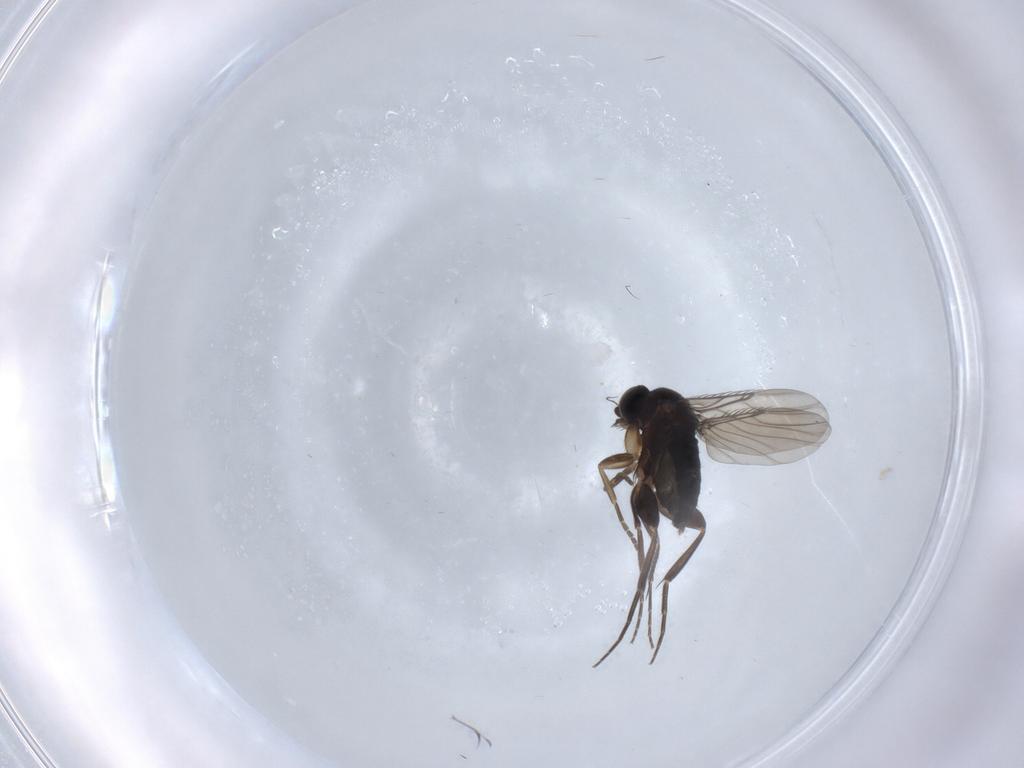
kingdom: Animalia
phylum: Arthropoda
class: Insecta
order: Diptera
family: Phoridae
